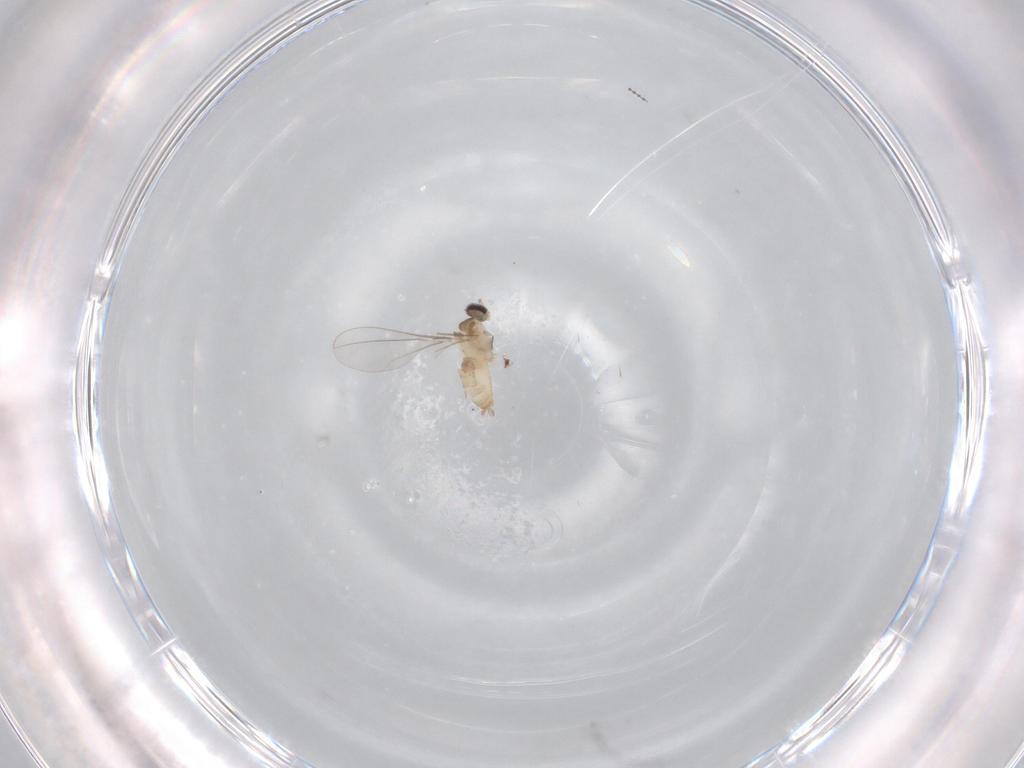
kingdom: Animalia
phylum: Arthropoda
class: Insecta
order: Diptera
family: Cecidomyiidae
